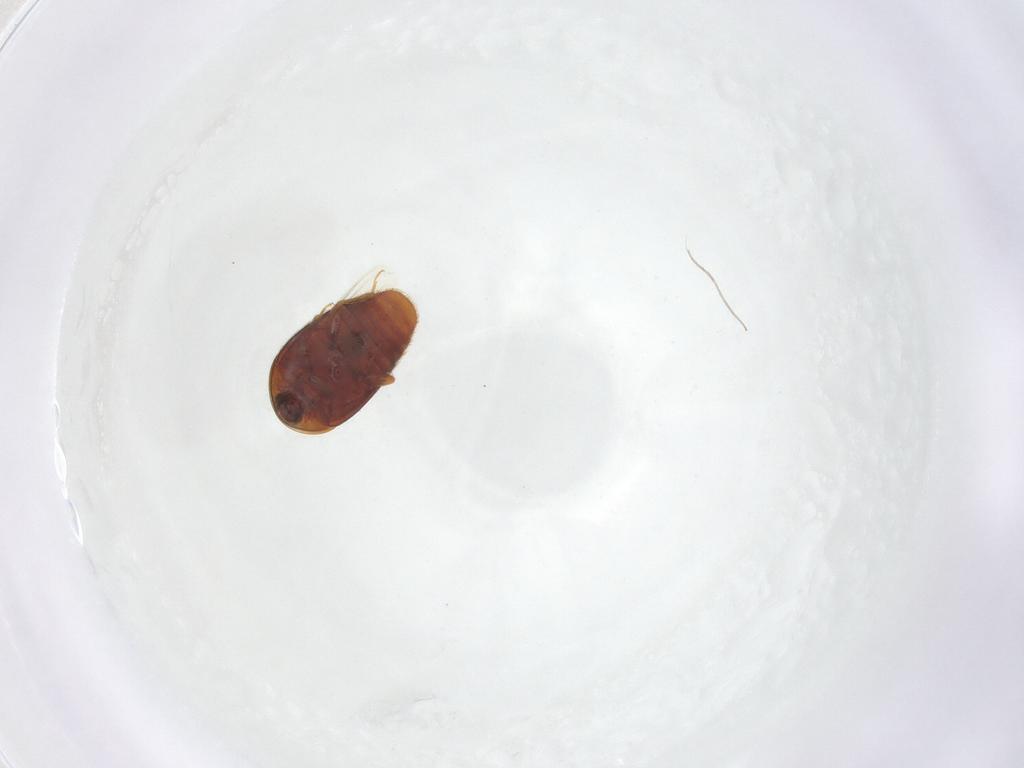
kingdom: Animalia
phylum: Arthropoda
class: Insecta
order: Coleoptera
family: Corylophidae
